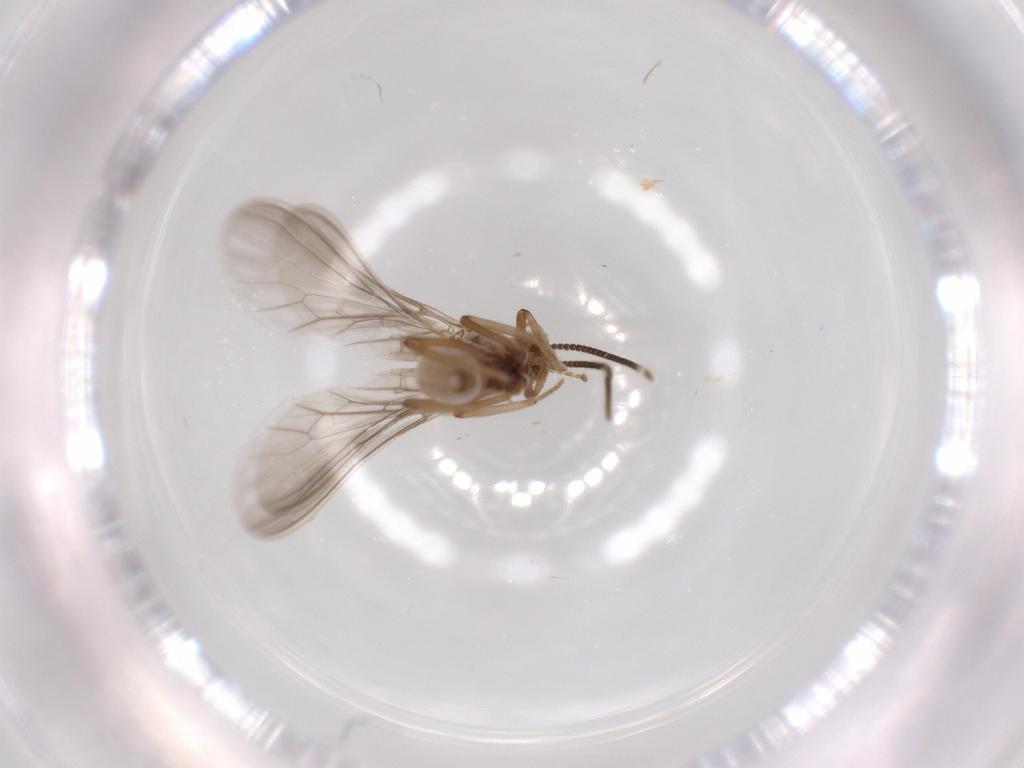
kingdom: Animalia
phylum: Arthropoda
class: Insecta
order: Neuroptera
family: Coniopterygidae
